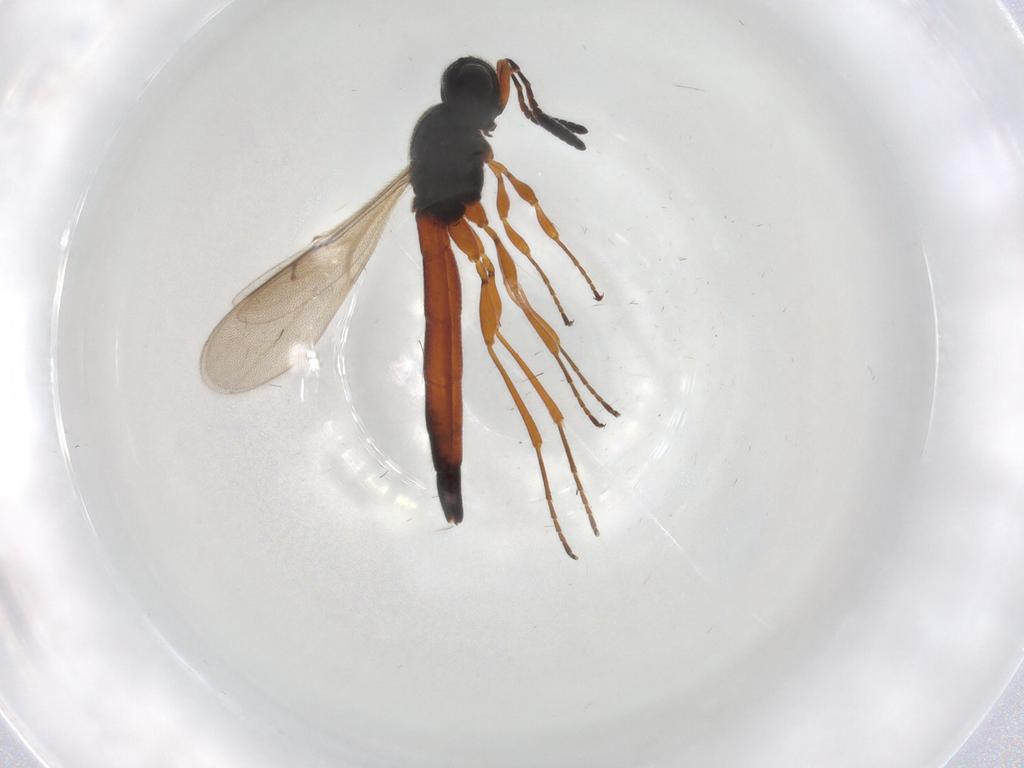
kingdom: Animalia
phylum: Arthropoda
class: Insecta
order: Hymenoptera
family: Scelionidae
